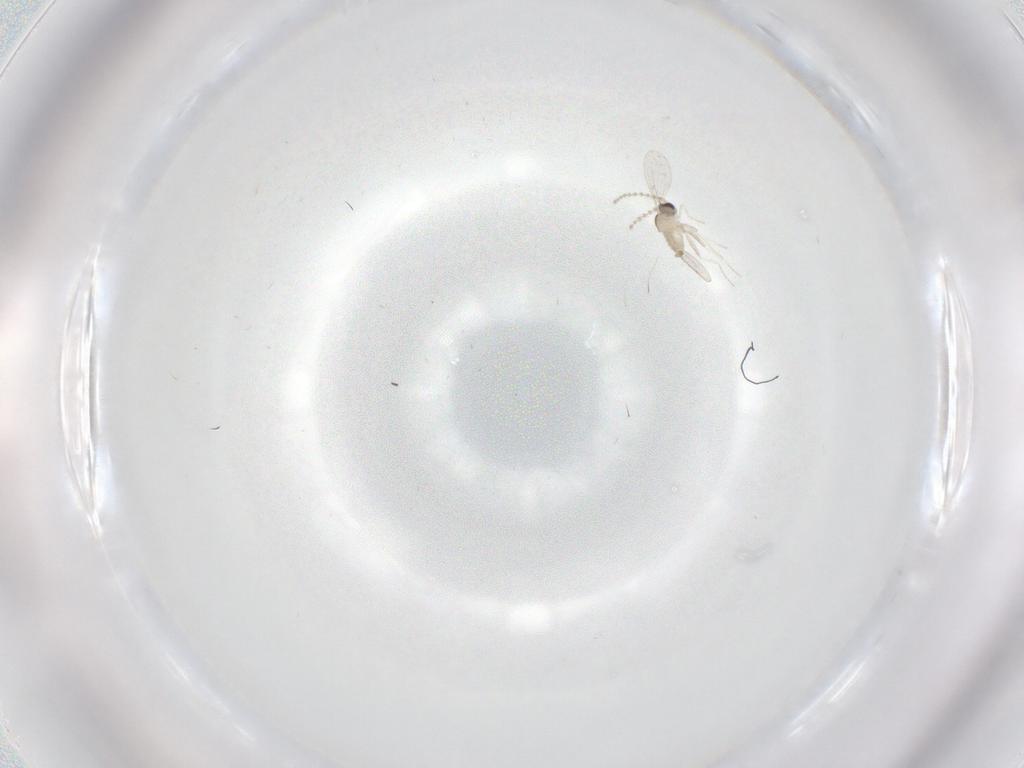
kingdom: Animalia
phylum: Arthropoda
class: Insecta
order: Diptera
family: Cecidomyiidae
